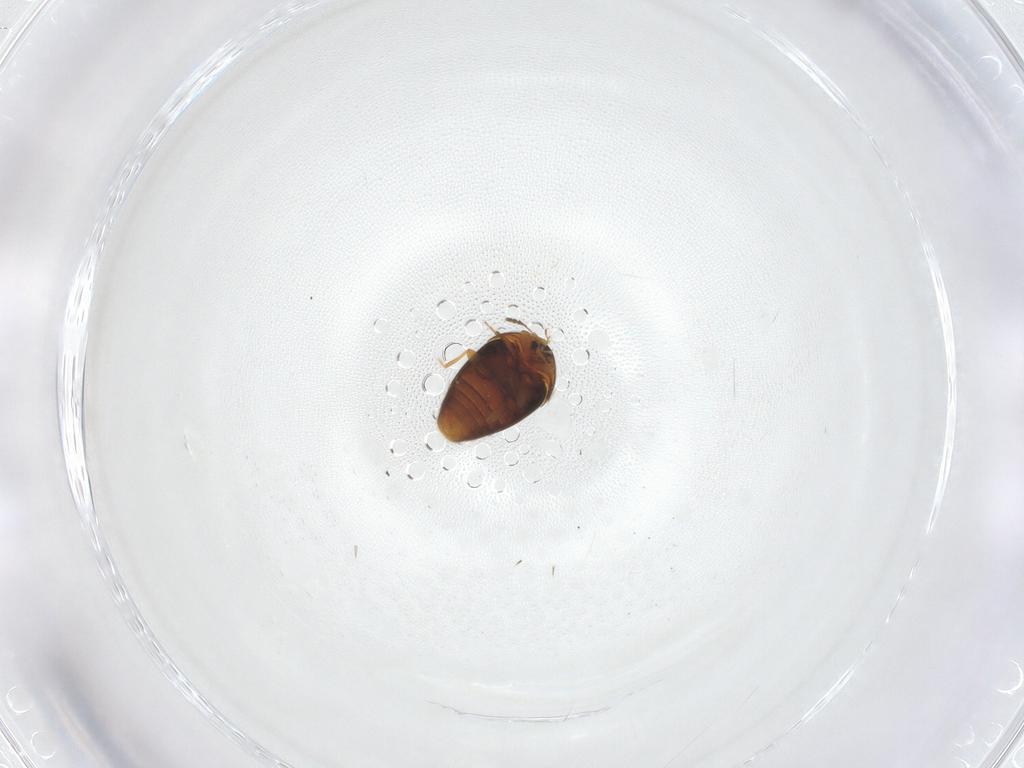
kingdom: Animalia
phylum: Arthropoda
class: Insecta
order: Coleoptera
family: Corylophidae
